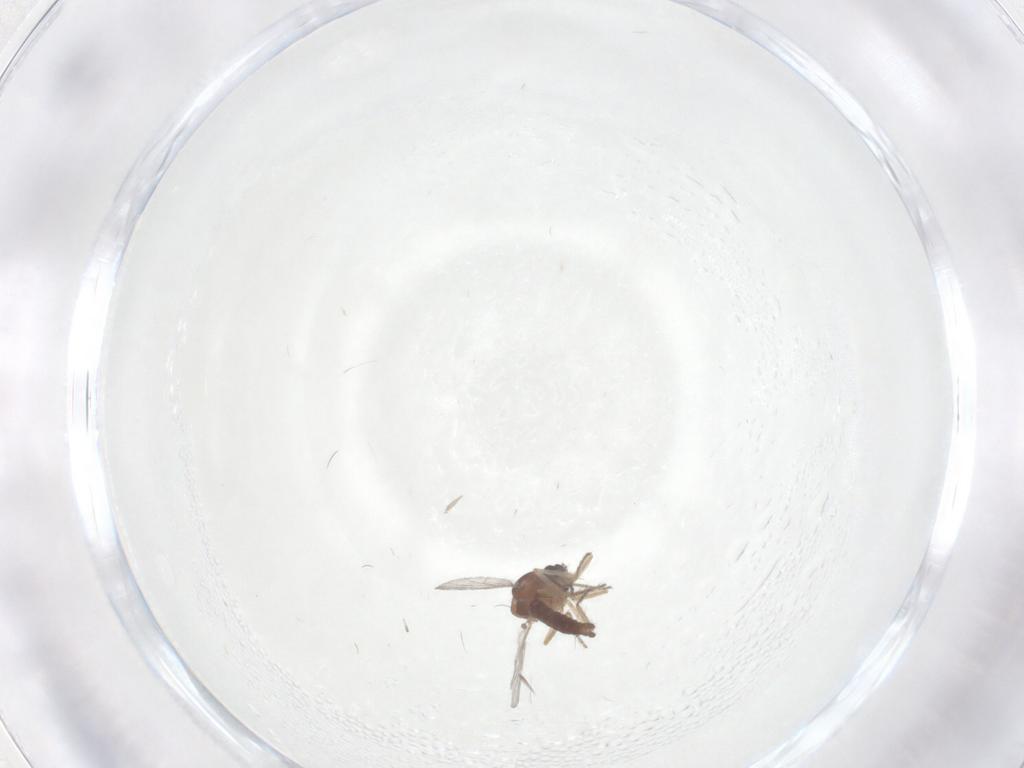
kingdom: Animalia
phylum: Arthropoda
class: Insecta
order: Diptera
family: Ceratopogonidae
